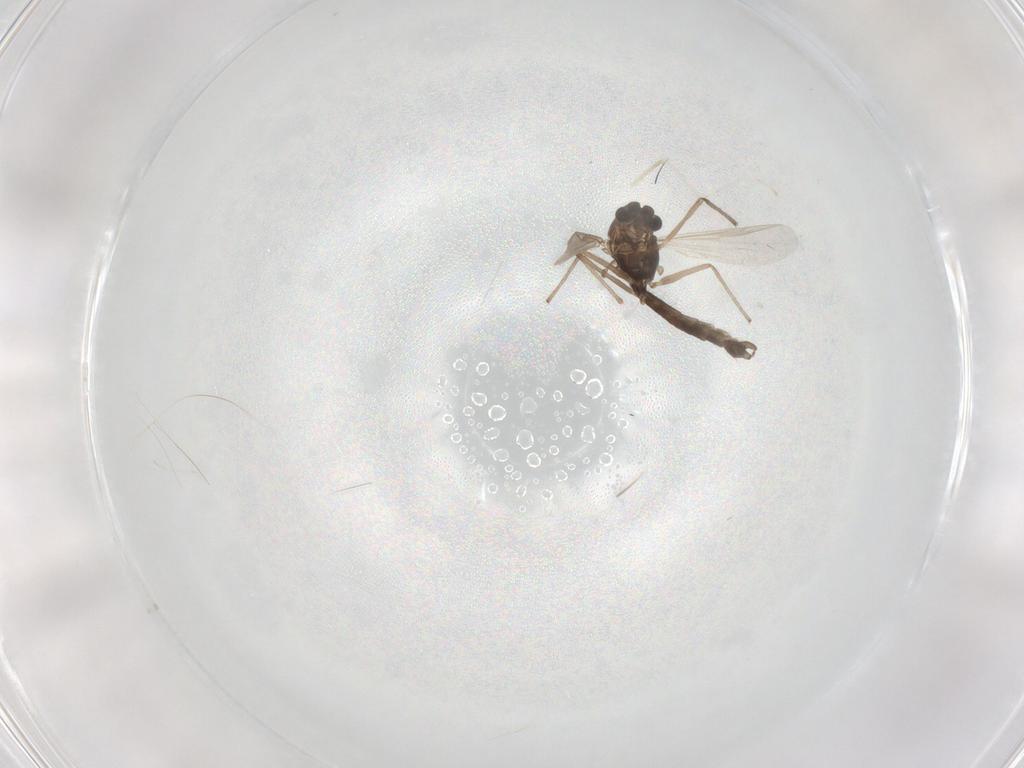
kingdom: Animalia
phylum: Arthropoda
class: Insecta
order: Diptera
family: Chironomidae
